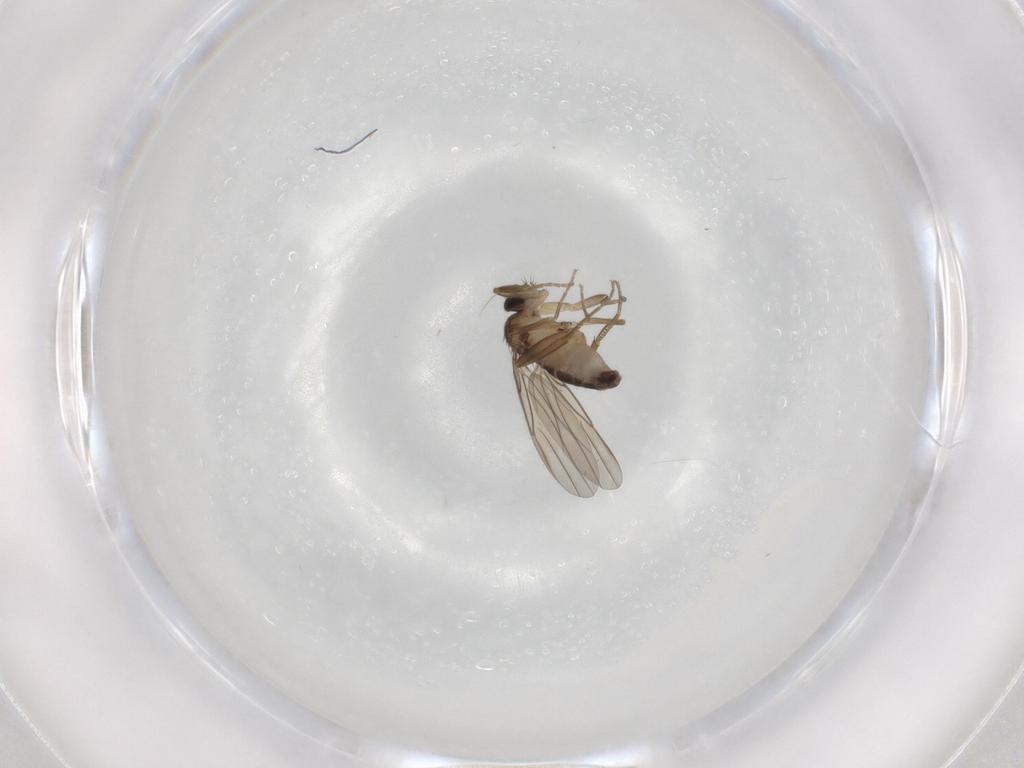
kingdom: Animalia
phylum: Arthropoda
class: Insecta
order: Diptera
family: Phoridae
